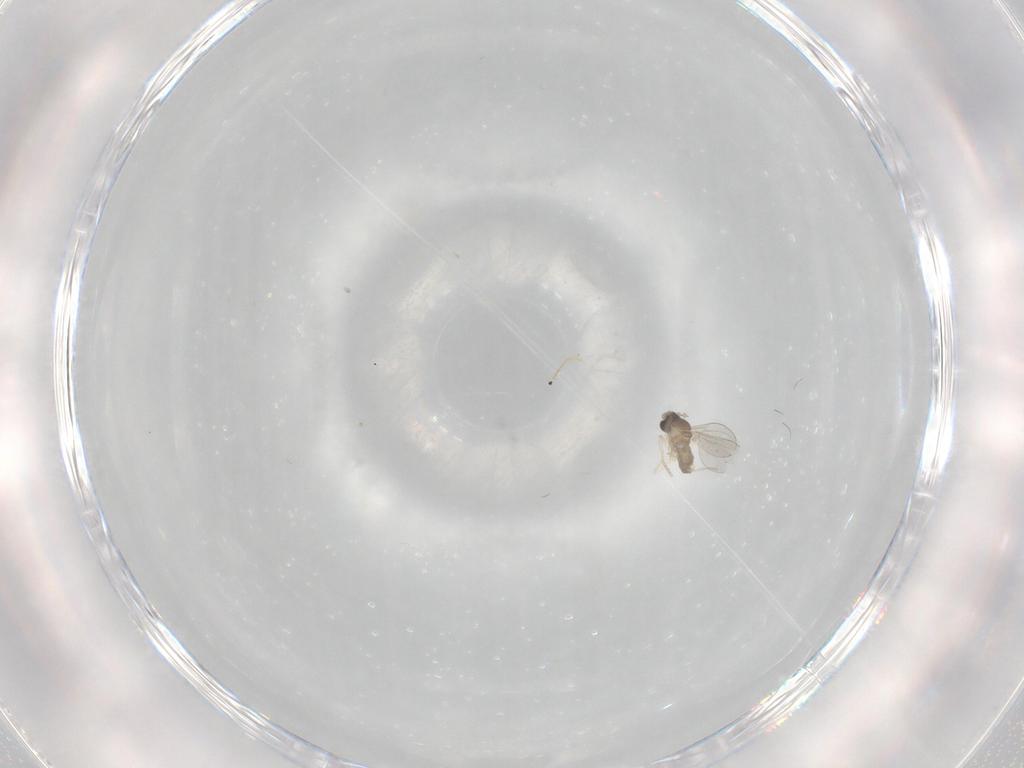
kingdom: Animalia
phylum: Arthropoda
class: Insecta
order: Diptera
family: Cecidomyiidae
